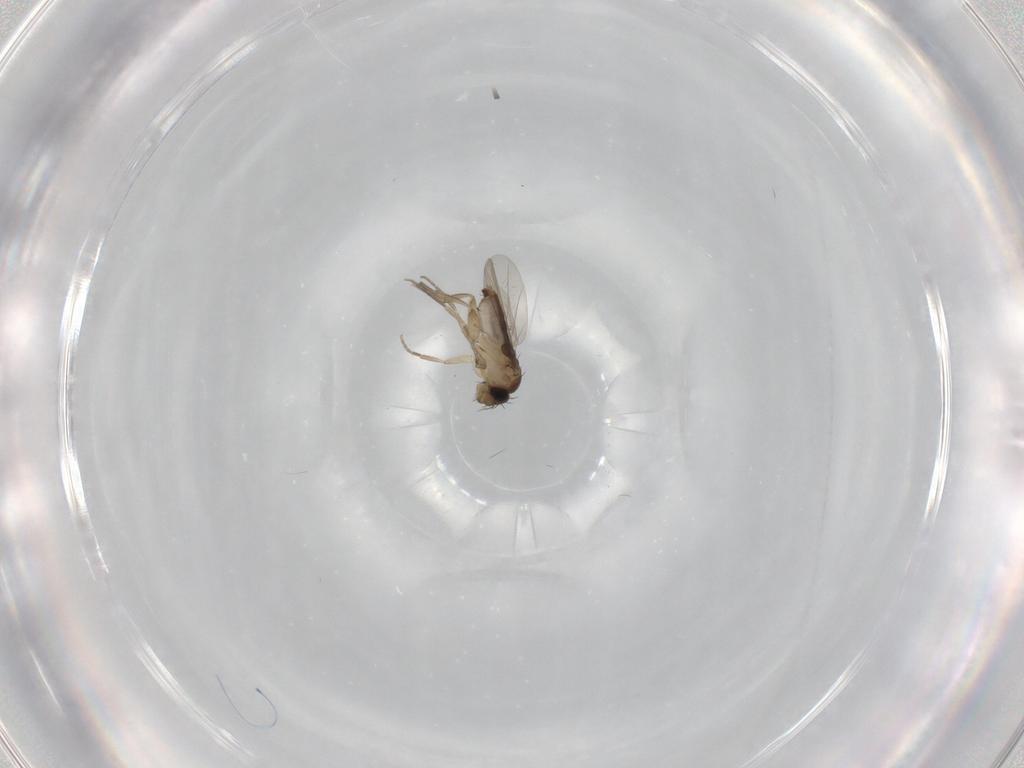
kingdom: Animalia
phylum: Arthropoda
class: Insecta
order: Diptera
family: Phoridae
